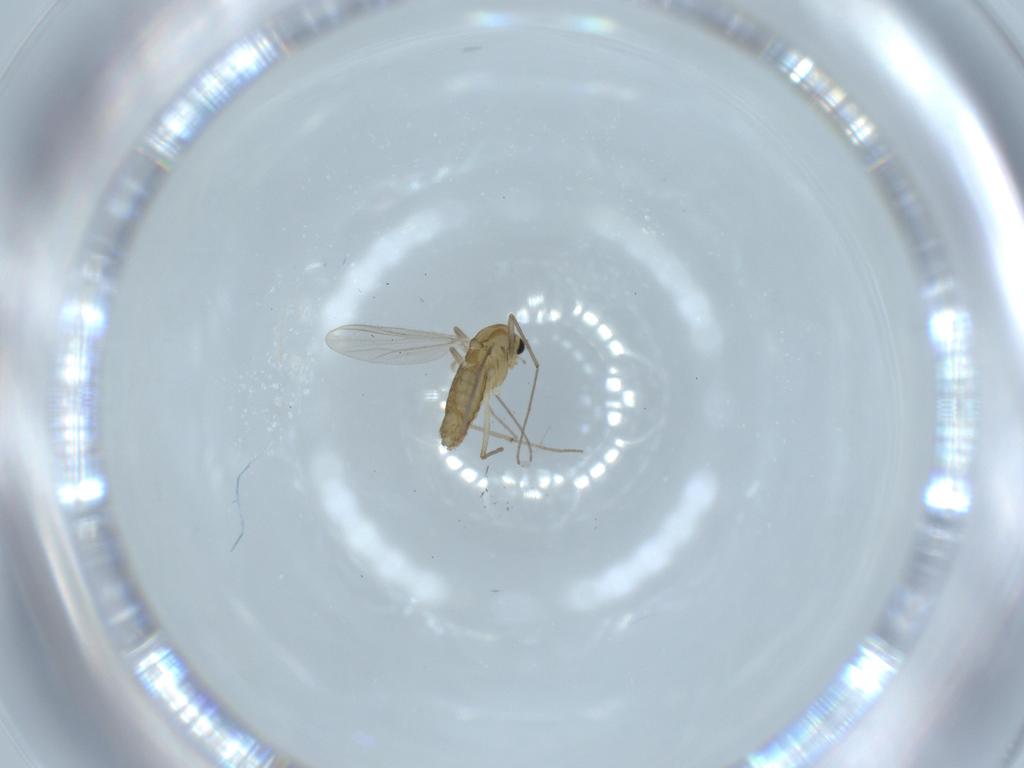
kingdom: Animalia
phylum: Arthropoda
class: Insecta
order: Diptera
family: Chironomidae
